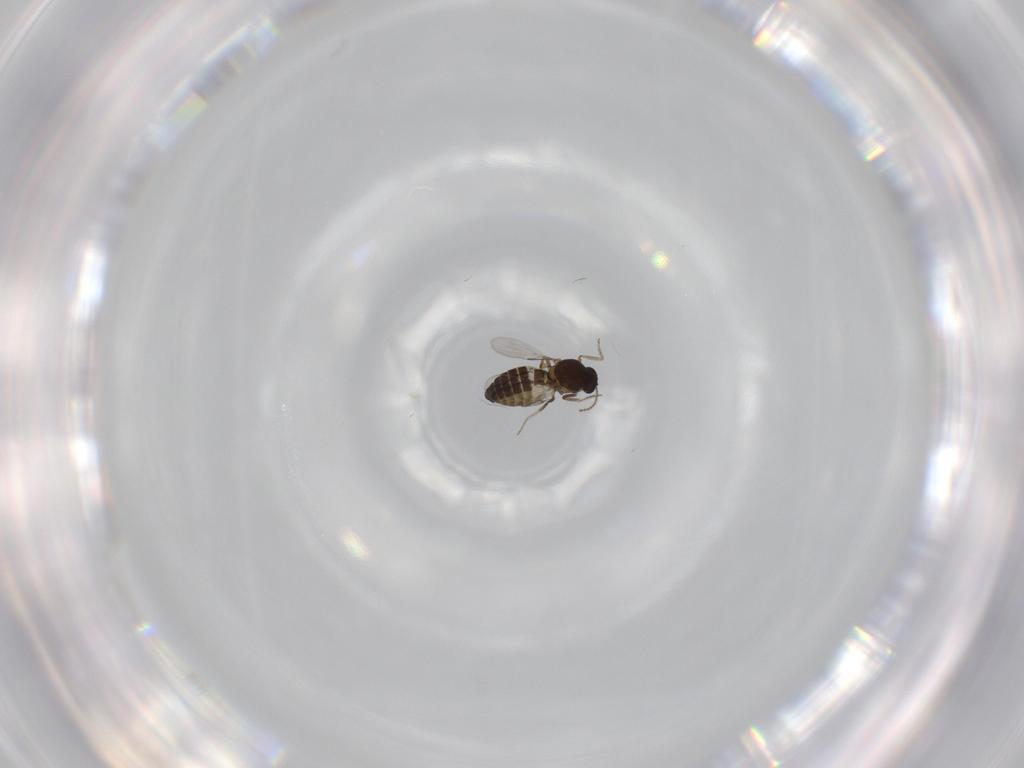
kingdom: Animalia
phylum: Arthropoda
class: Insecta
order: Diptera
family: Ceratopogonidae
